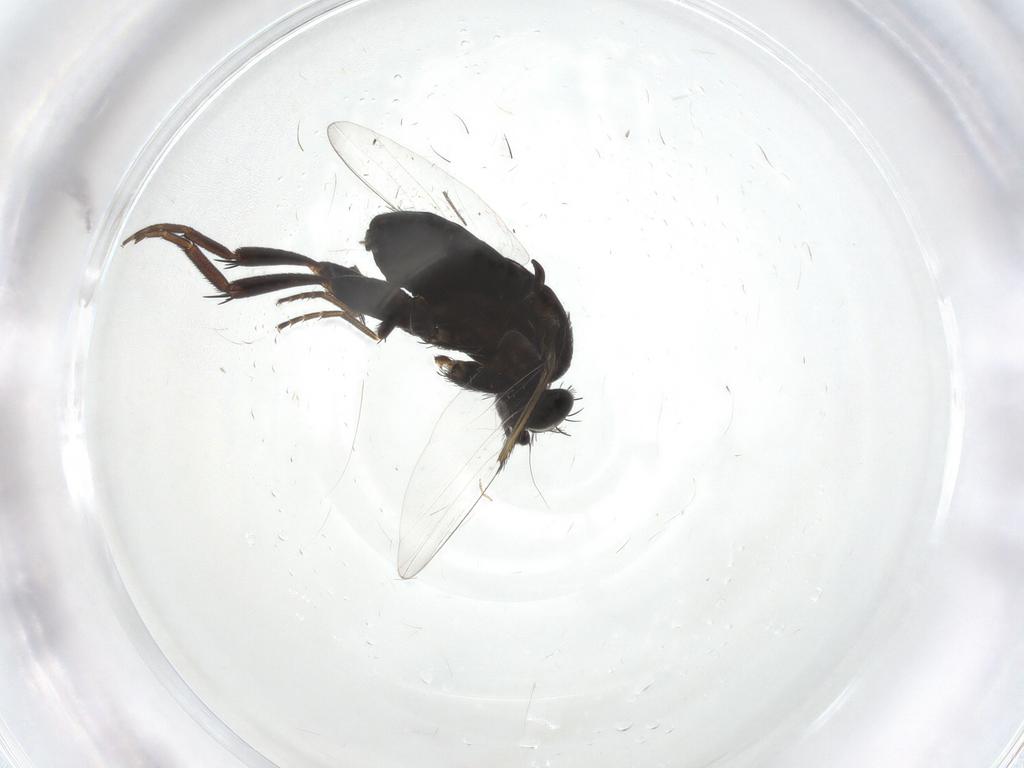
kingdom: Animalia
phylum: Arthropoda
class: Insecta
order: Diptera
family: Phoridae
